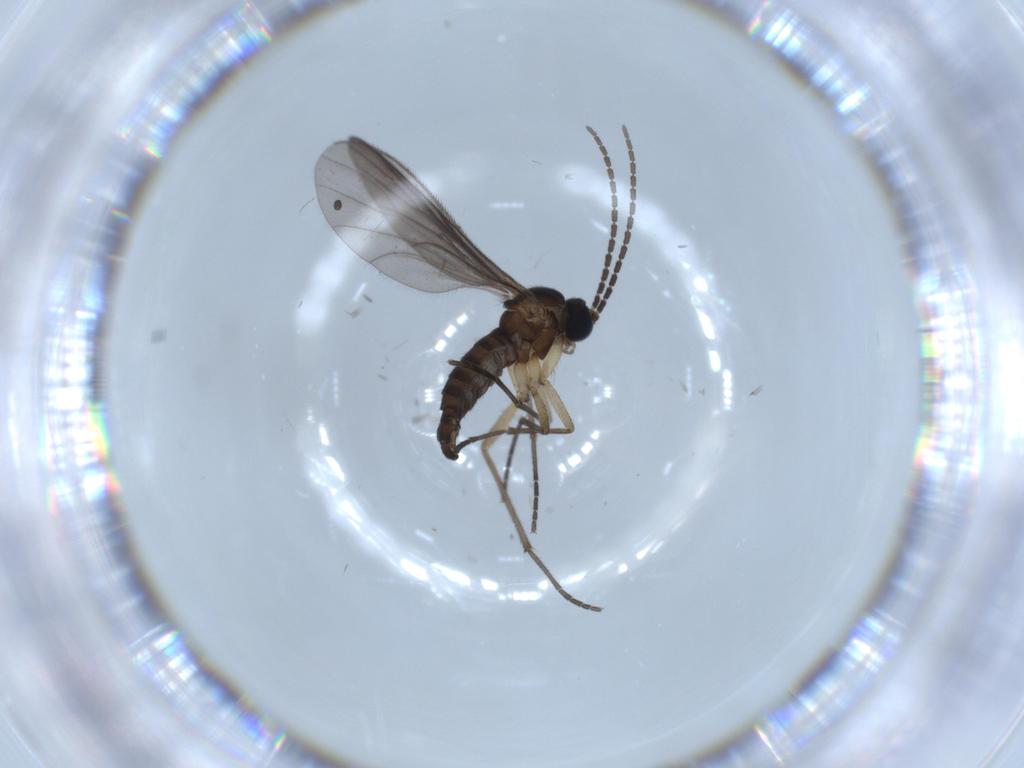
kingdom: Animalia
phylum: Arthropoda
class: Insecta
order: Diptera
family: Sciaridae
